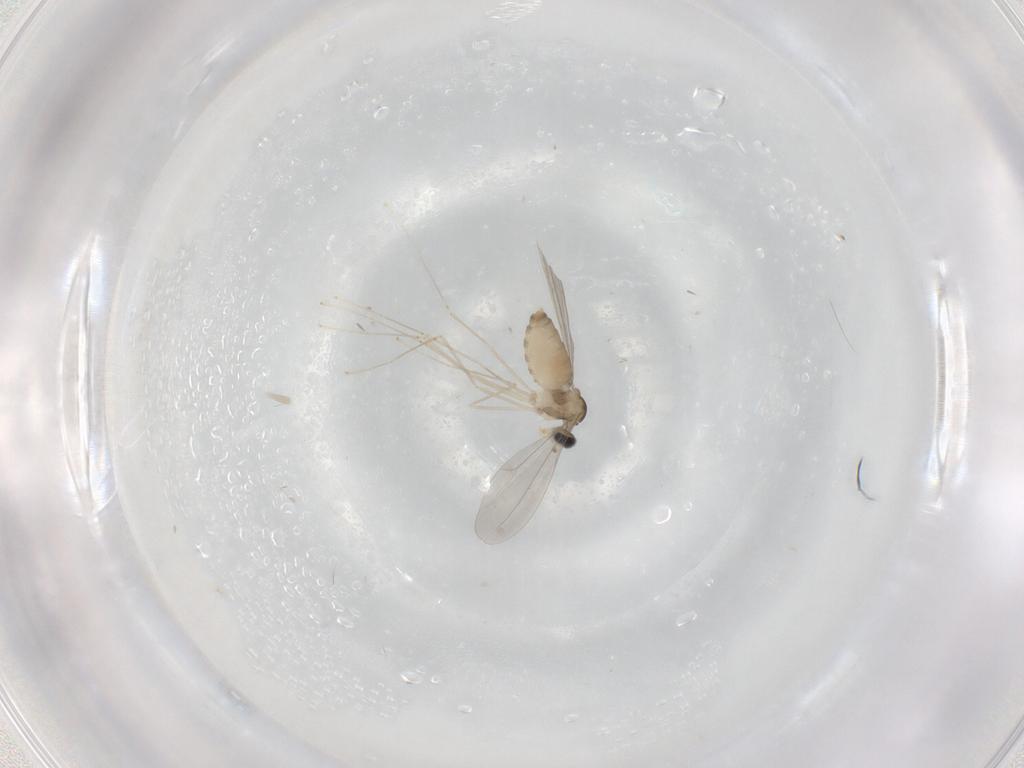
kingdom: Animalia
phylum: Arthropoda
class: Insecta
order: Diptera
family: Cecidomyiidae
